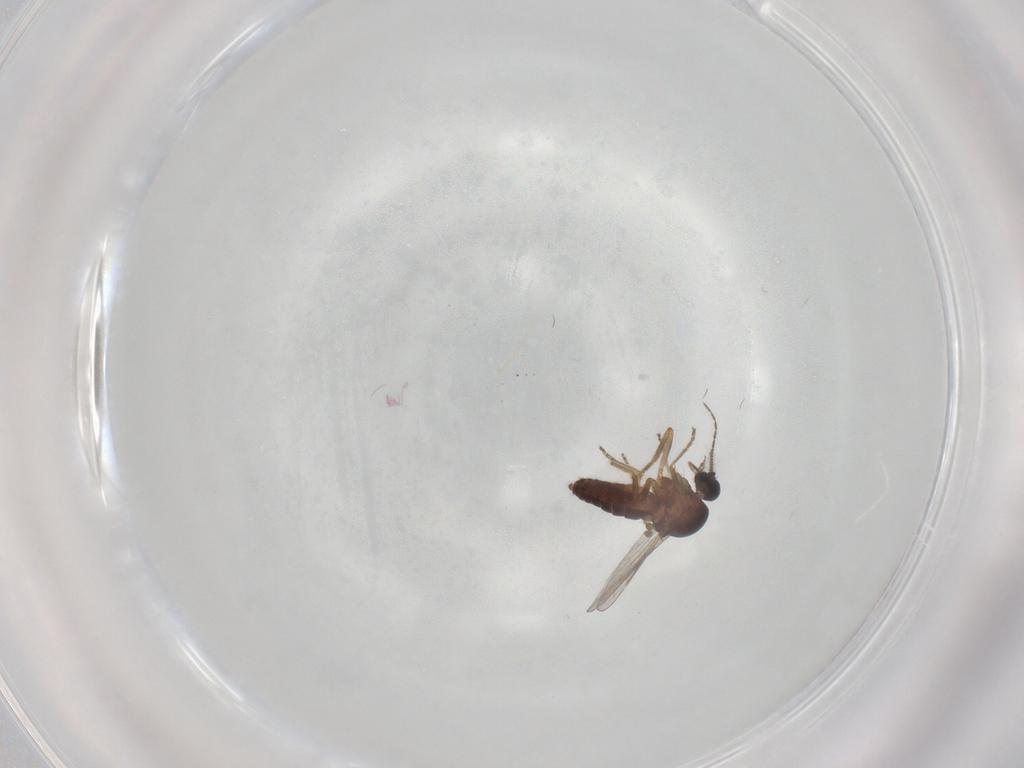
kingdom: Animalia
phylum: Arthropoda
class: Insecta
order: Diptera
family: Ceratopogonidae
